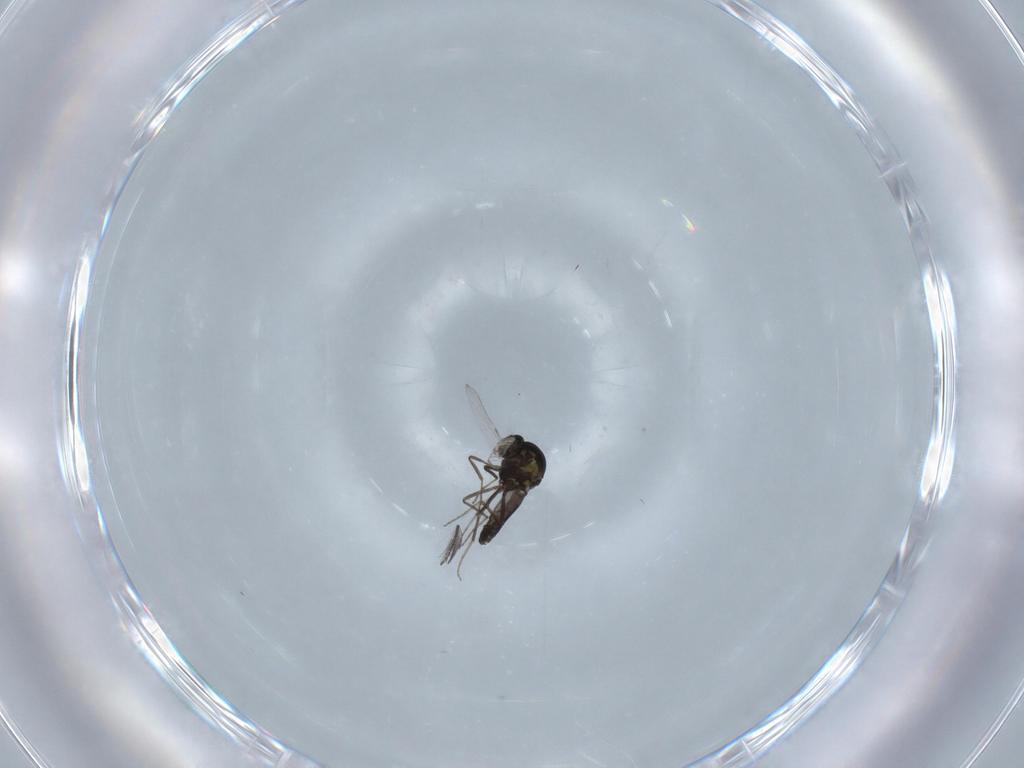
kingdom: Animalia
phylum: Arthropoda
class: Insecta
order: Diptera
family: Ceratopogonidae
